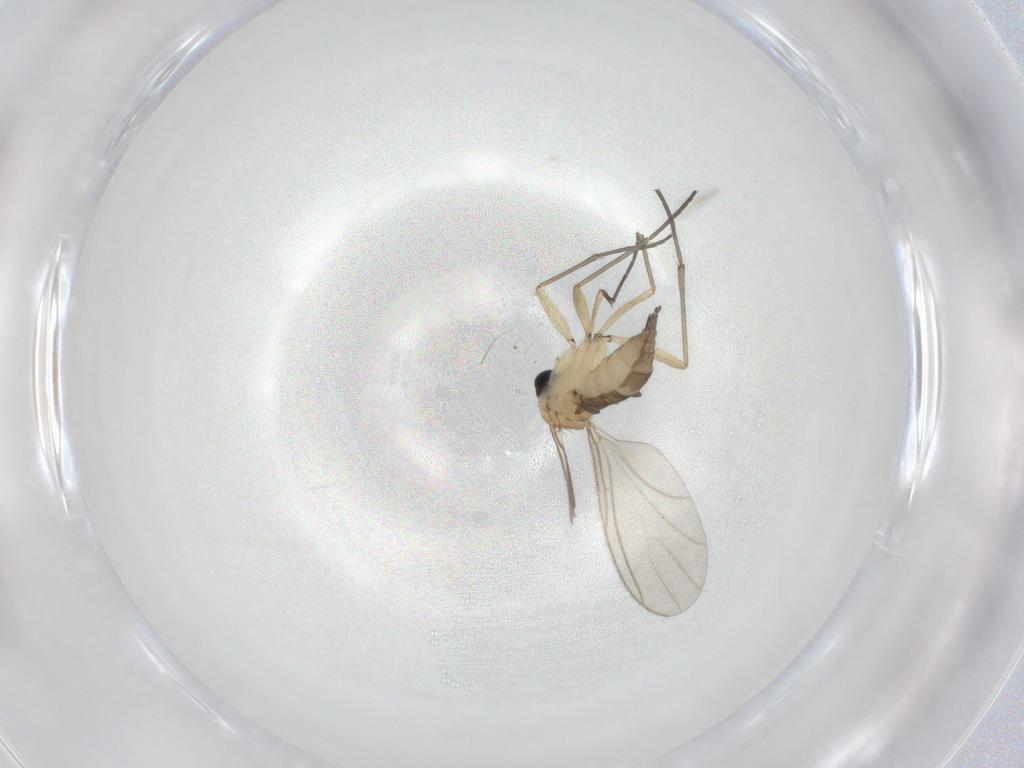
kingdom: Animalia
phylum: Arthropoda
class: Insecta
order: Diptera
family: Sciaridae
